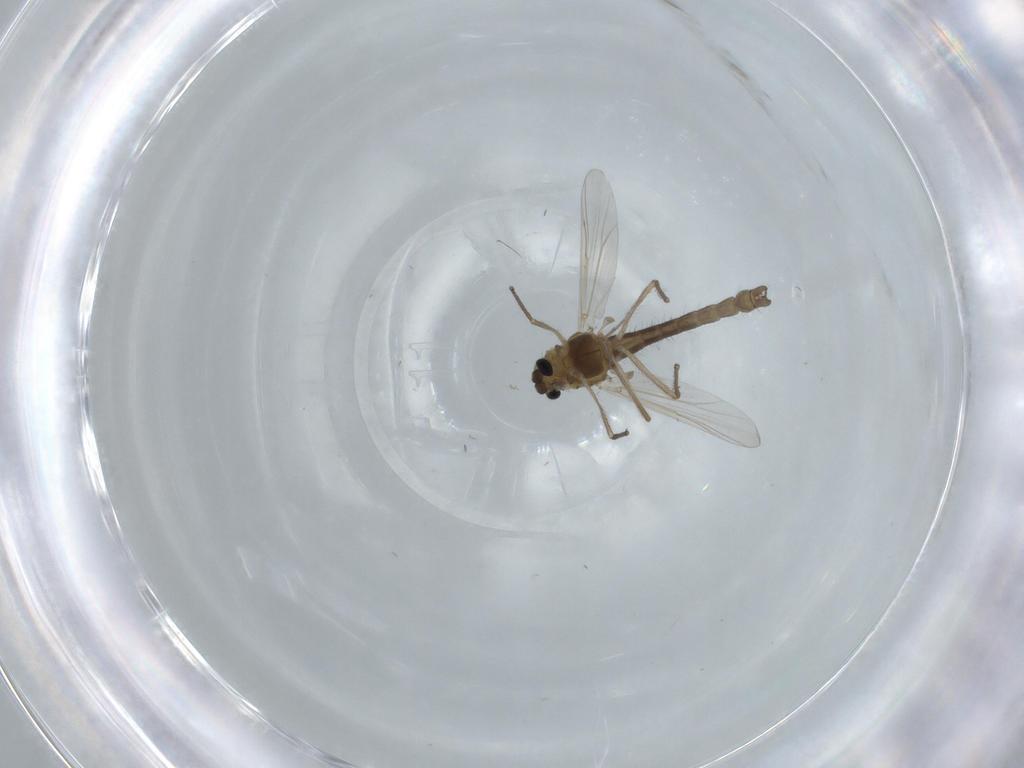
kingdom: Animalia
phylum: Arthropoda
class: Insecta
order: Diptera
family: Chironomidae
